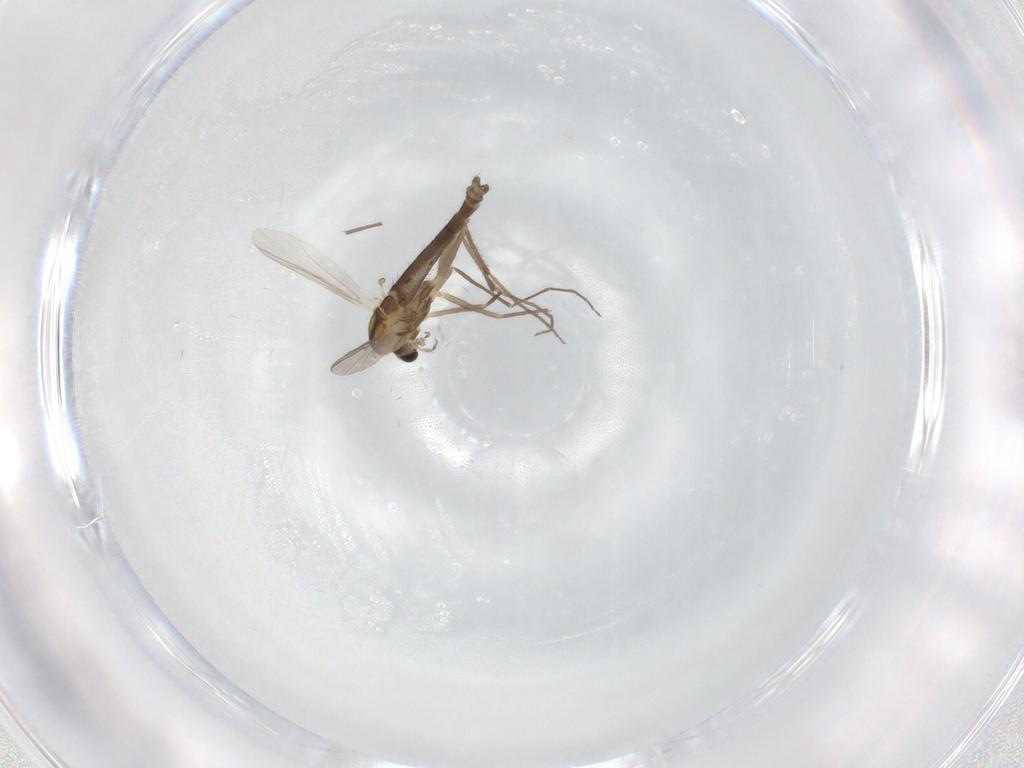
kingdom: Animalia
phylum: Arthropoda
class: Insecta
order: Diptera
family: Chironomidae
